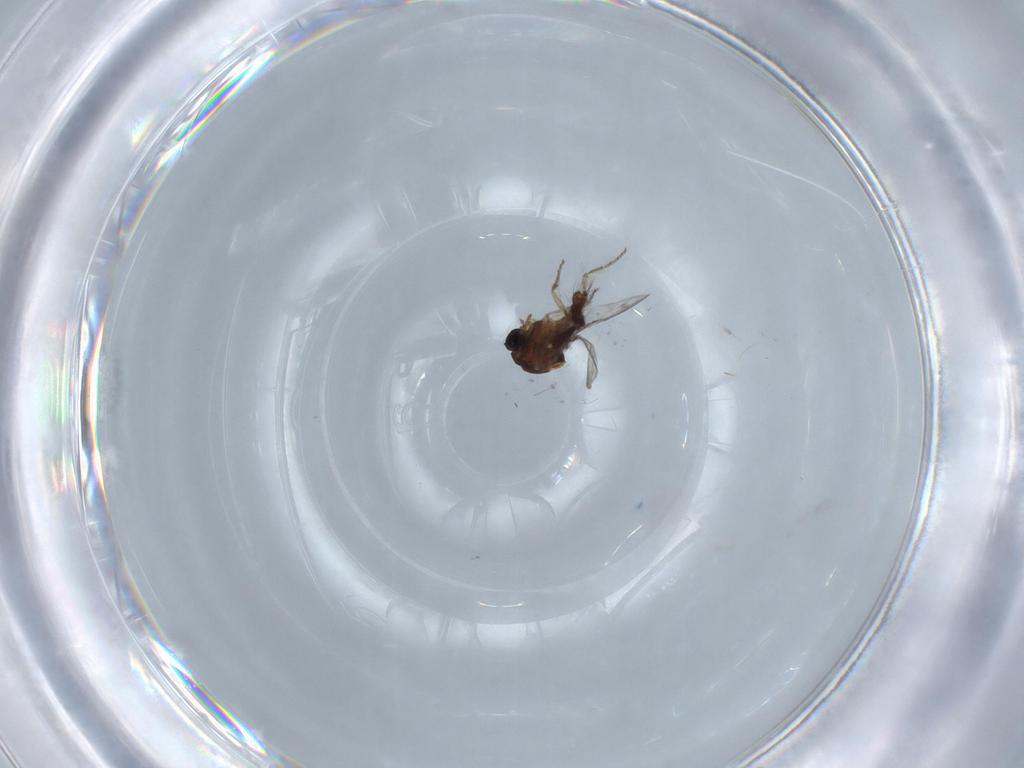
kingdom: Animalia
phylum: Arthropoda
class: Insecta
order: Diptera
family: Ceratopogonidae
